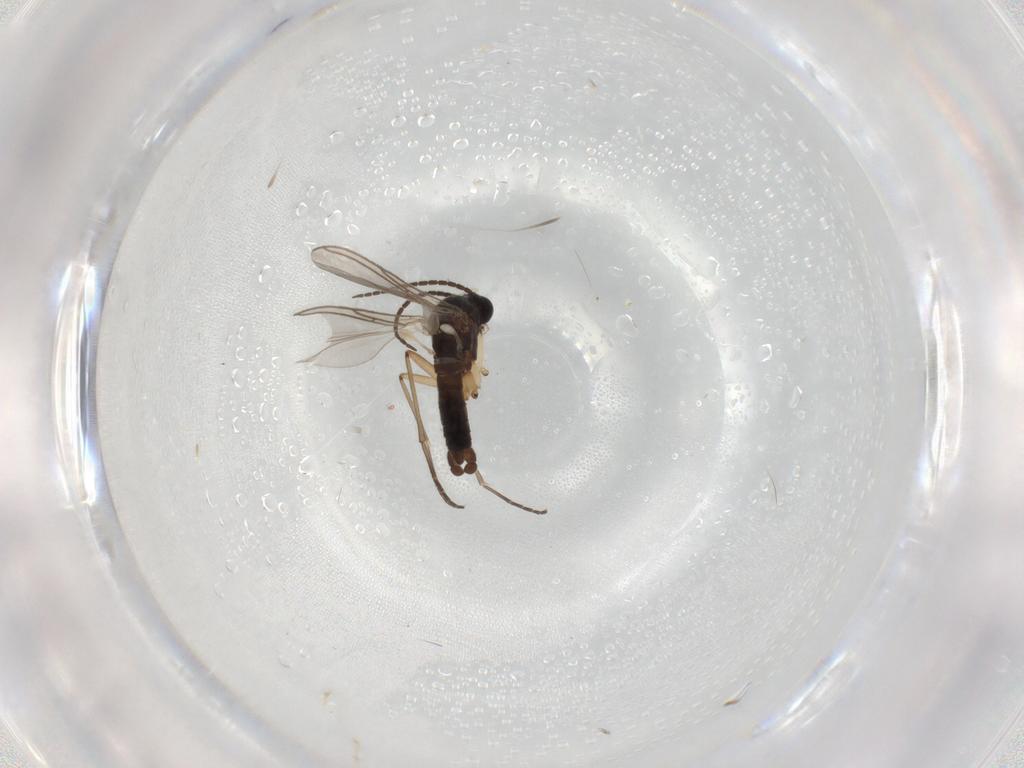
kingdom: Animalia
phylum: Arthropoda
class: Insecta
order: Diptera
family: Sciaridae
